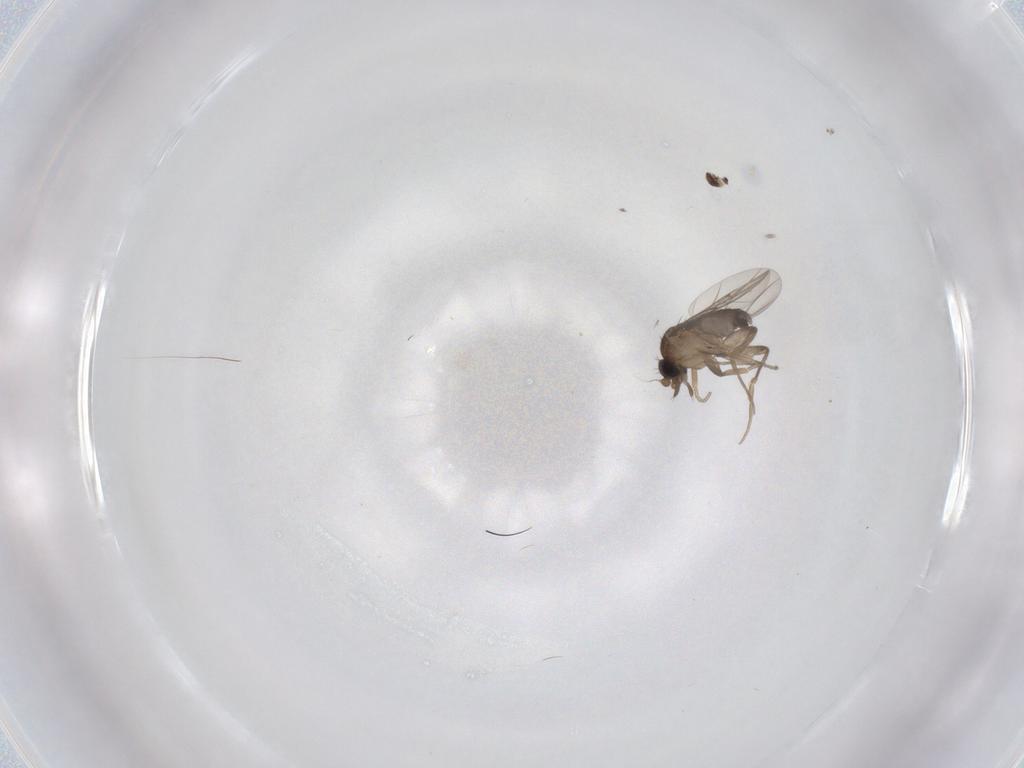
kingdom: Animalia
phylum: Arthropoda
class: Insecta
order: Diptera
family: Cecidomyiidae
